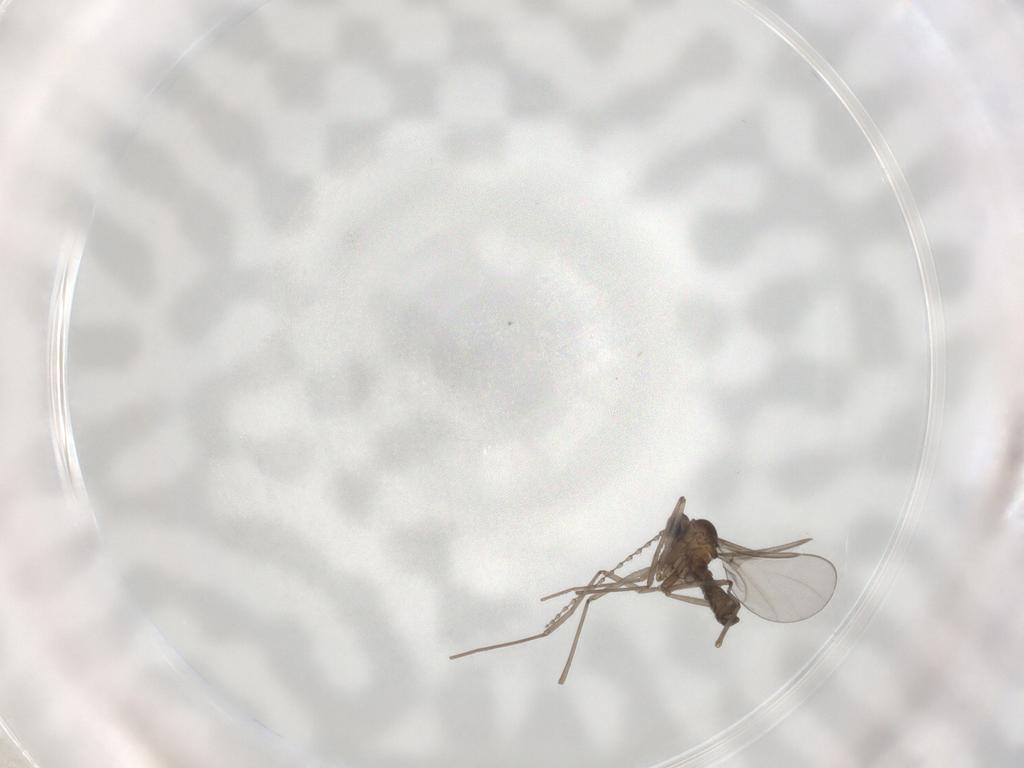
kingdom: Animalia
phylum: Arthropoda
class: Insecta
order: Diptera
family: Cecidomyiidae
